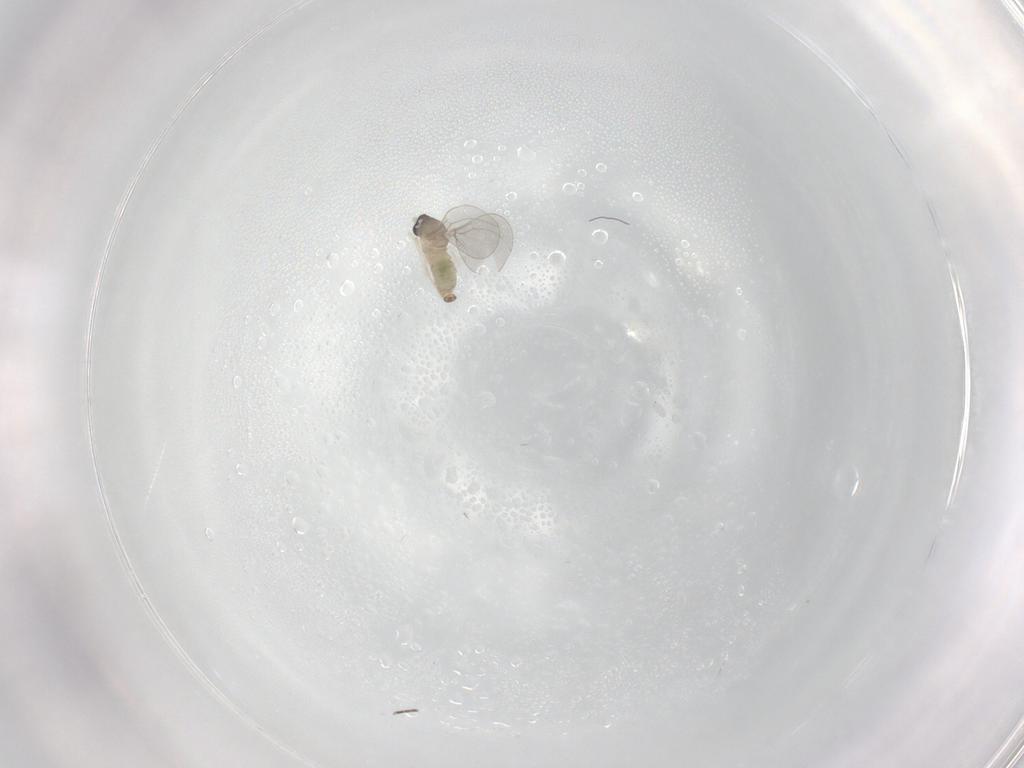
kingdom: Animalia
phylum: Arthropoda
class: Insecta
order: Diptera
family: Cecidomyiidae
